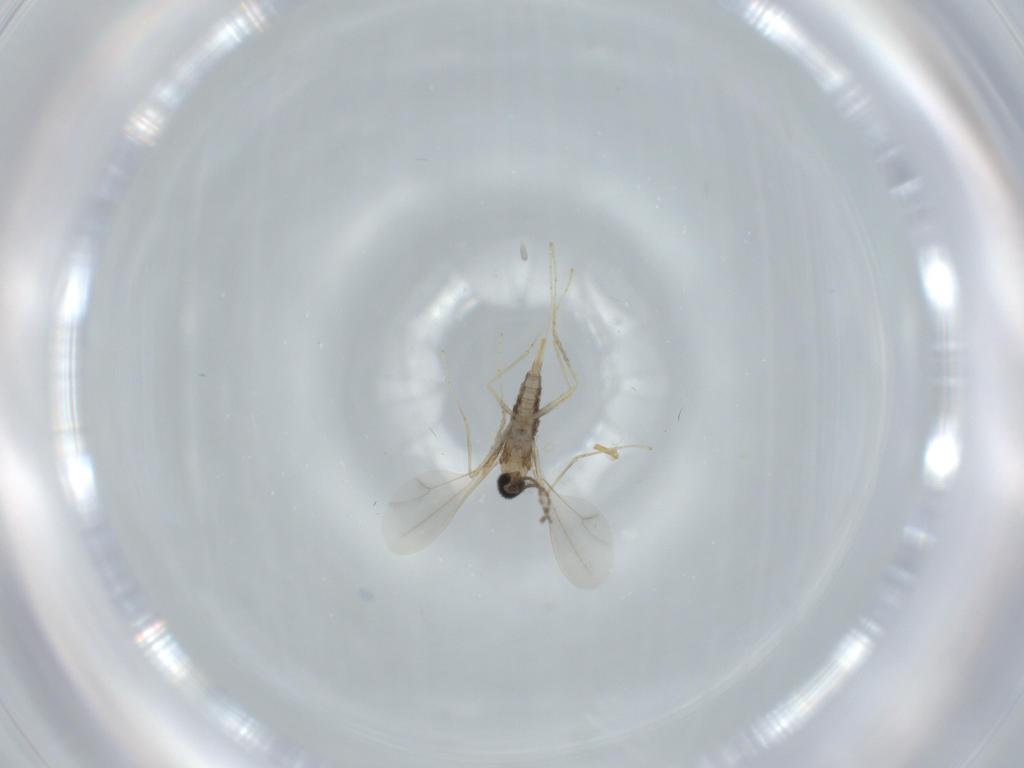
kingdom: Animalia
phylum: Arthropoda
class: Insecta
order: Diptera
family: Cecidomyiidae
